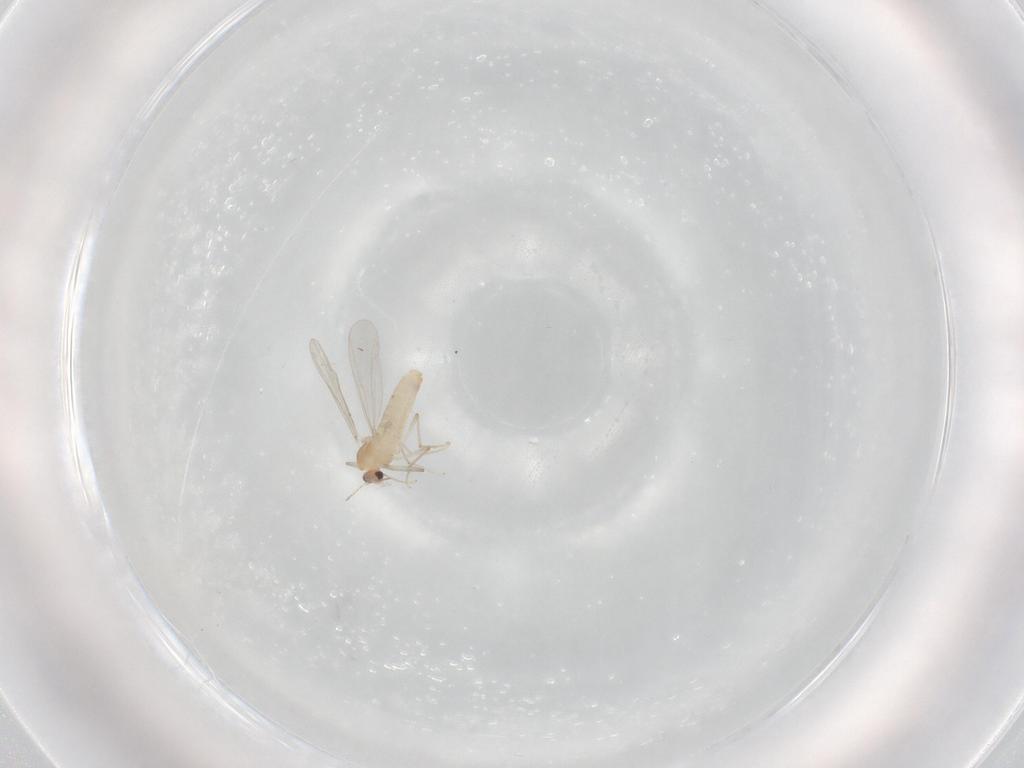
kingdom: Animalia
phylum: Arthropoda
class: Insecta
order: Diptera
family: Chironomidae
